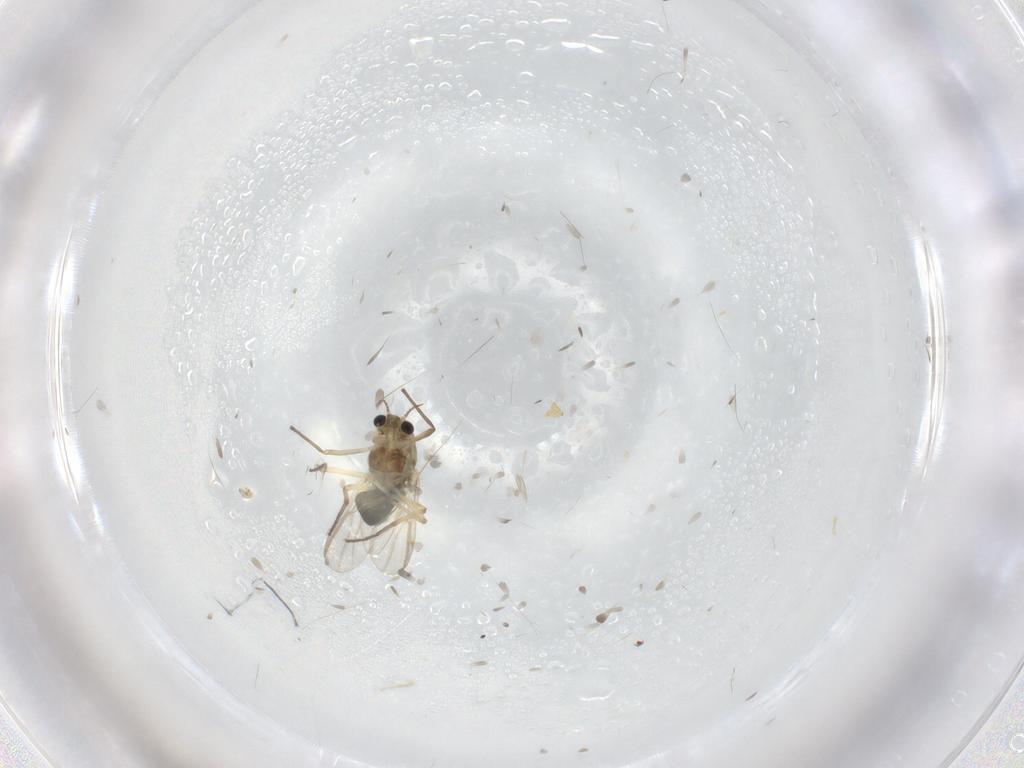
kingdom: Animalia
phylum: Arthropoda
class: Insecta
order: Diptera
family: Chironomidae
